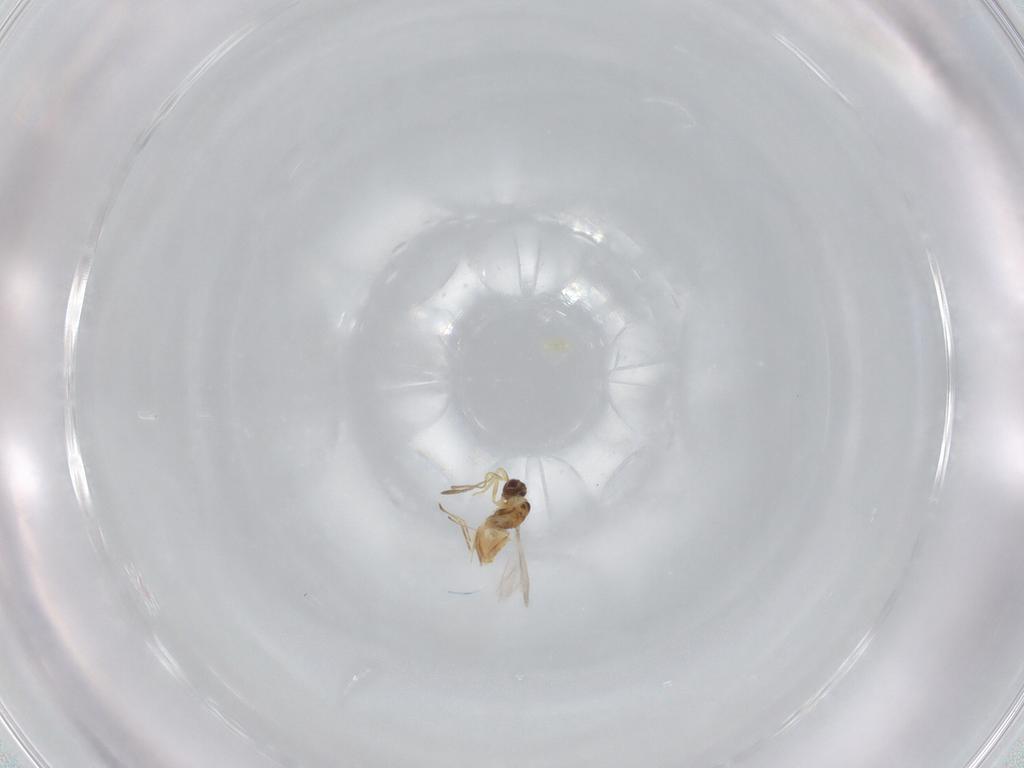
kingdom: Animalia
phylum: Arthropoda
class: Insecta
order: Hymenoptera
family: Mymaridae
